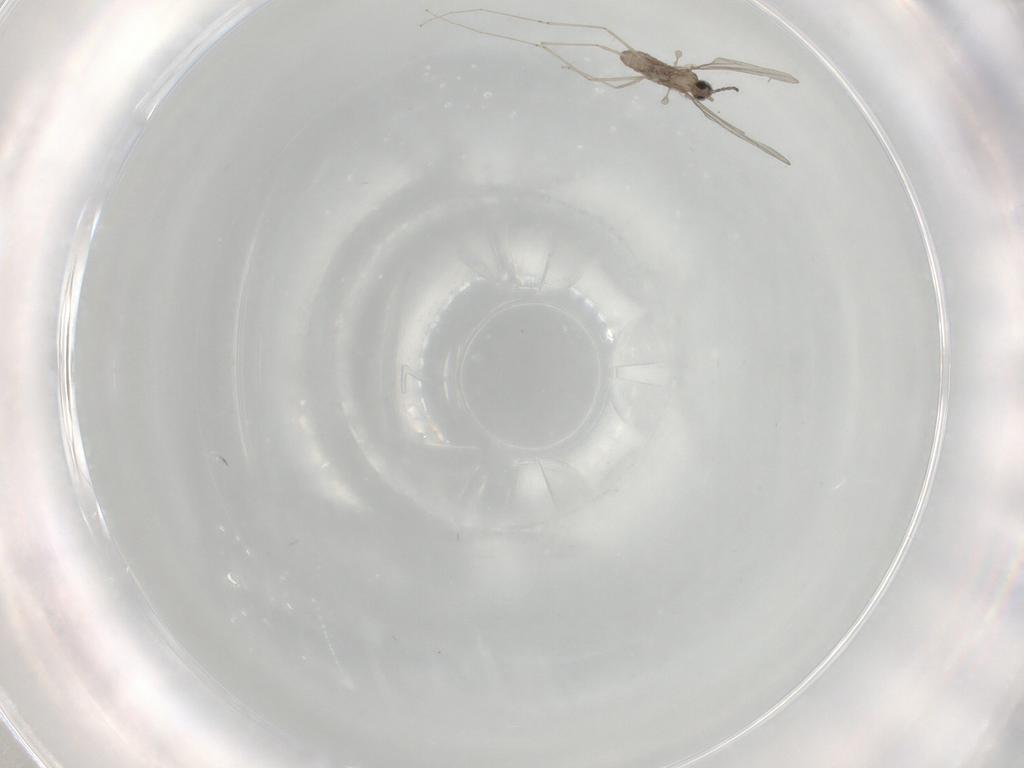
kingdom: Animalia
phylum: Arthropoda
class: Insecta
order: Diptera
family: Cecidomyiidae
